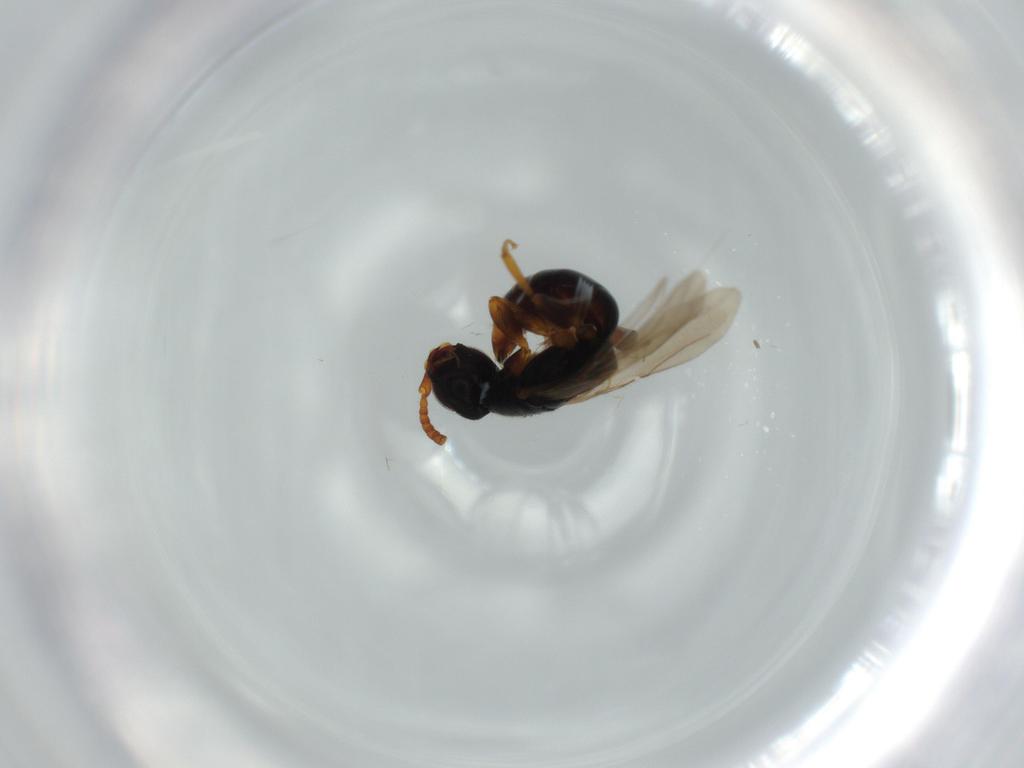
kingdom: Animalia
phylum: Arthropoda
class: Insecta
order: Hymenoptera
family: Bethylidae
